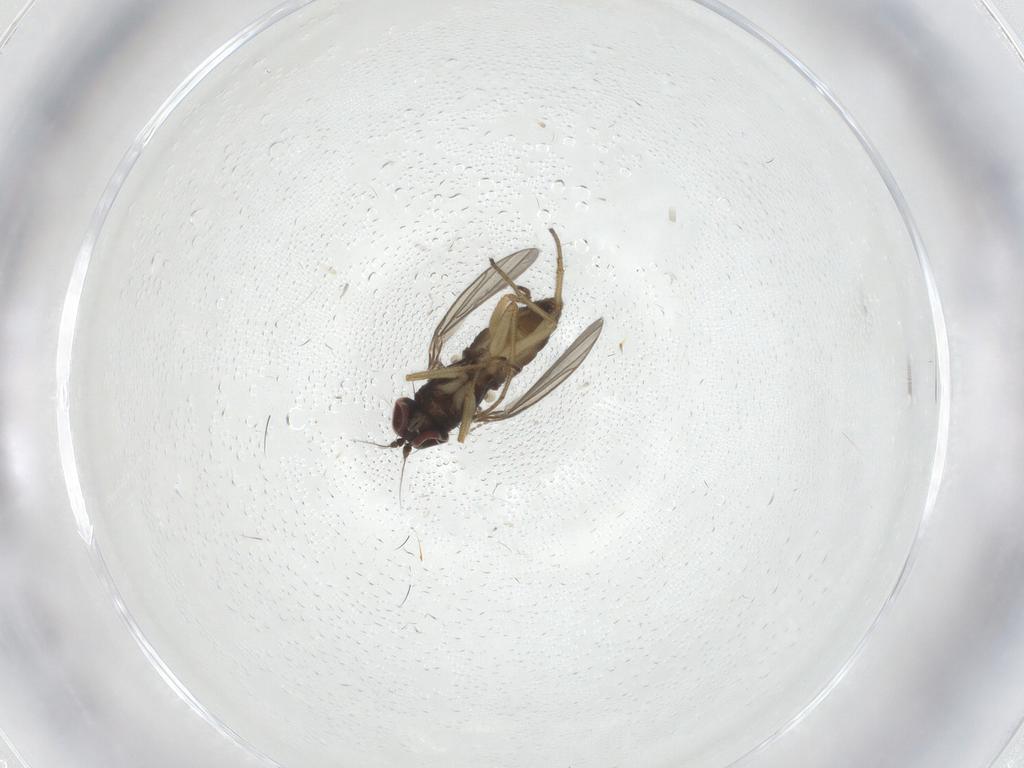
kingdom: Animalia
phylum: Arthropoda
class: Insecta
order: Diptera
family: Dolichopodidae
